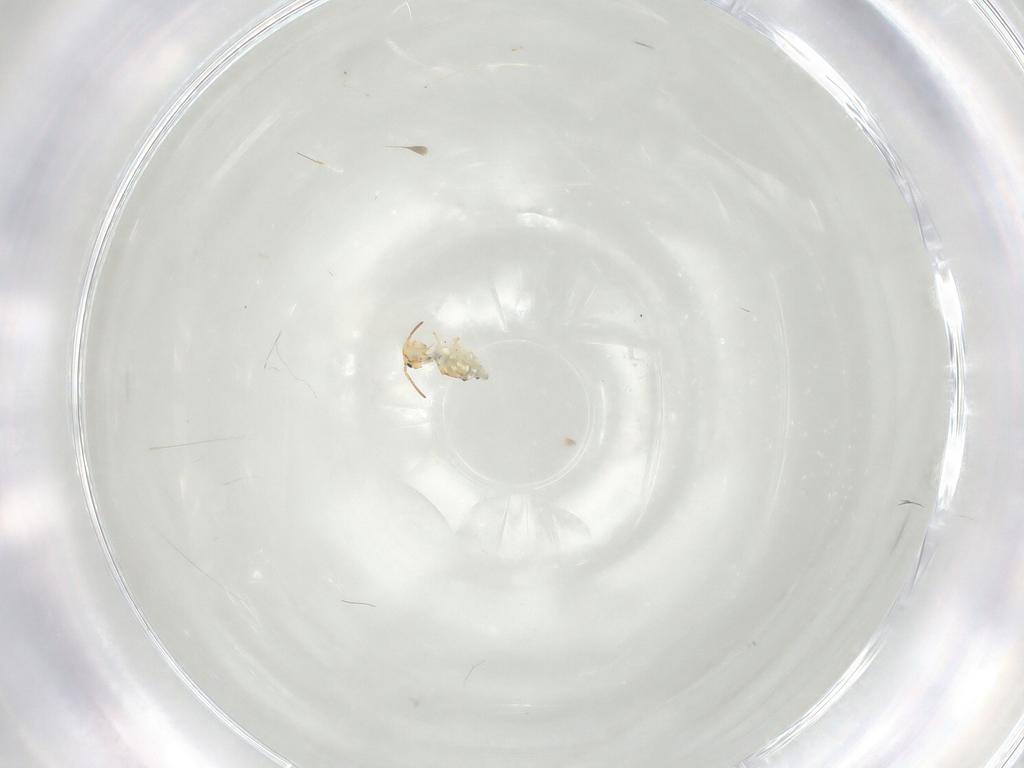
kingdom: Animalia
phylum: Arthropoda
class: Collembola
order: Symphypleona
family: Bourletiellidae
